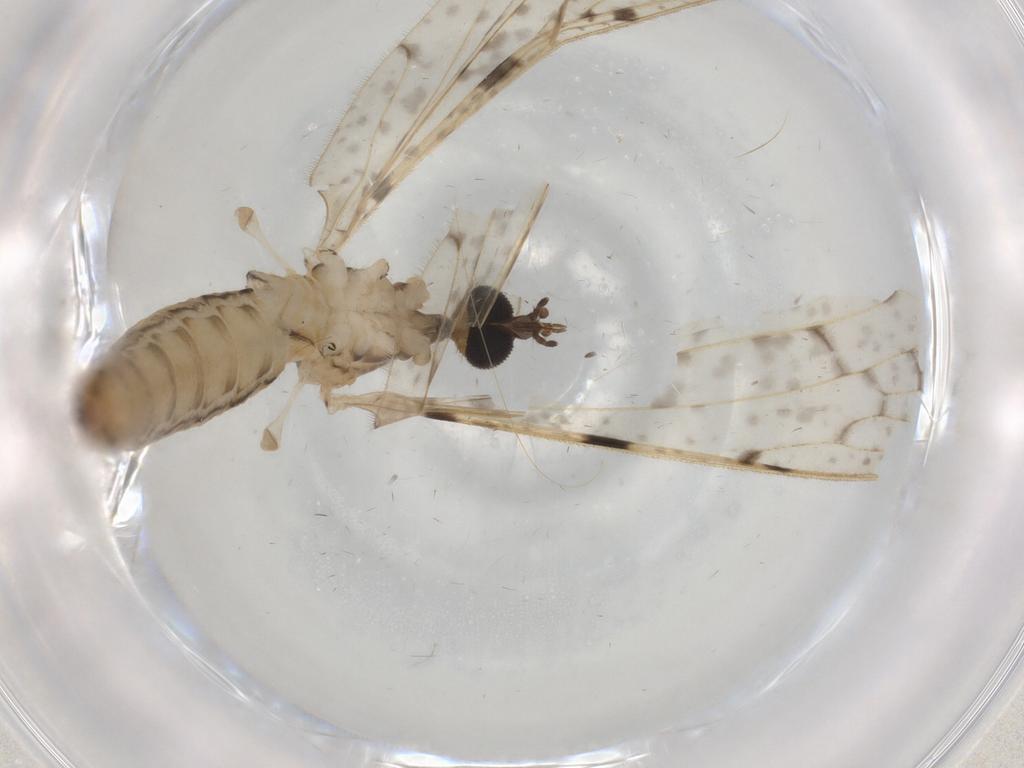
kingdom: Animalia
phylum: Arthropoda
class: Insecta
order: Diptera
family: Limoniidae
